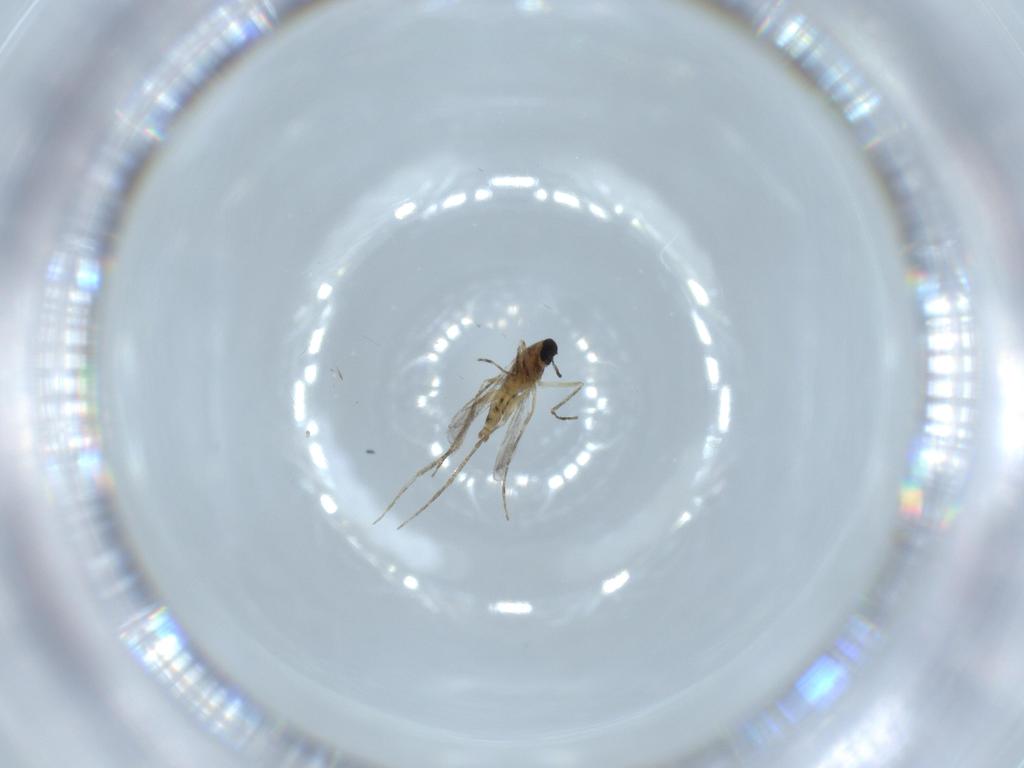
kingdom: Animalia
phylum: Arthropoda
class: Insecta
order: Diptera
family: Cecidomyiidae
